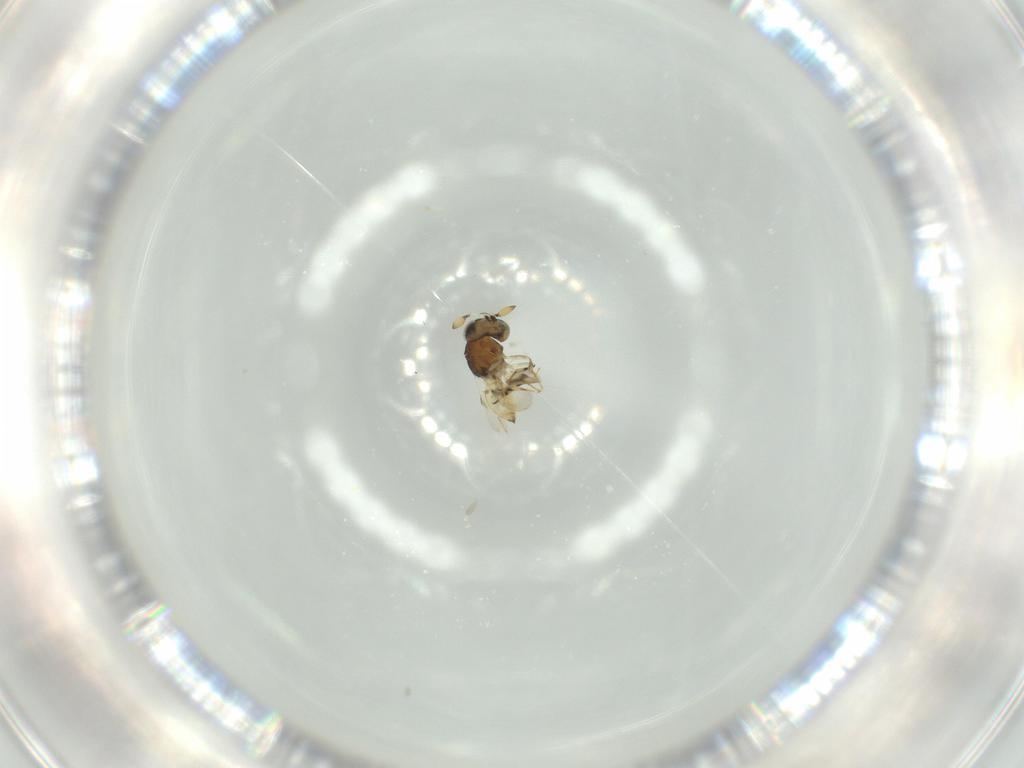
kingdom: Animalia
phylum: Arthropoda
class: Insecta
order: Hymenoptera
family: Scelionidae
